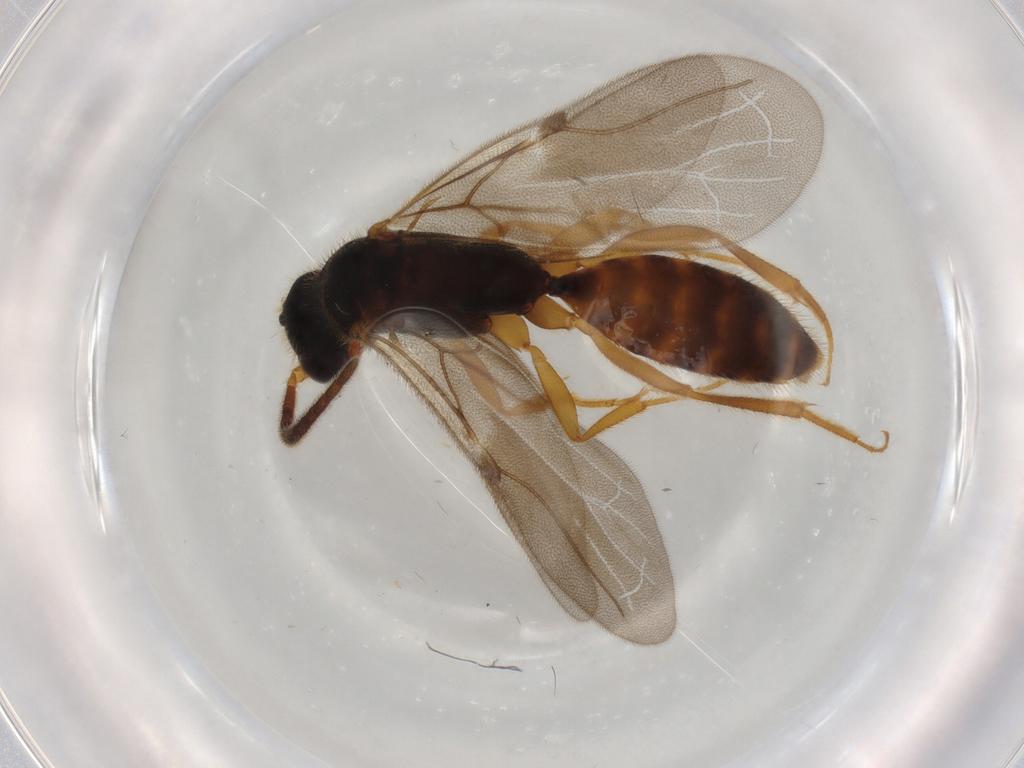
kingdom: Animalia
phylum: Arthropoda
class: Insecta
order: Hymenoptera
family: Bethylidae
